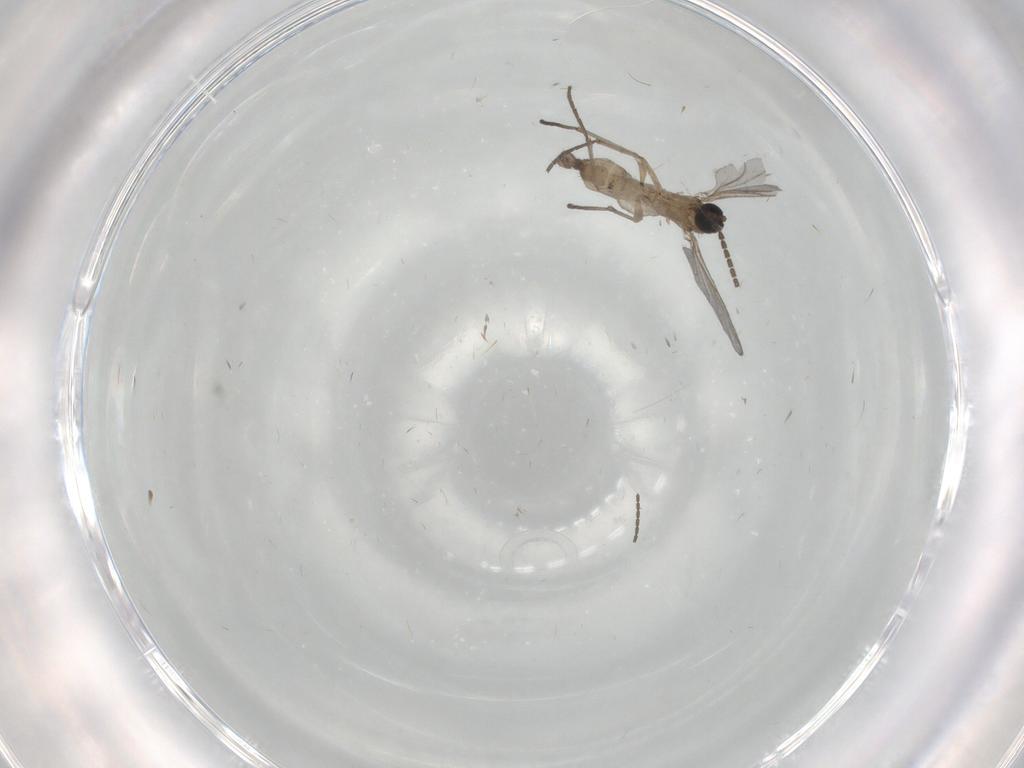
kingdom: Animalia
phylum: Arthropoda
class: Insecta
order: Diptera
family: Sciaridae
